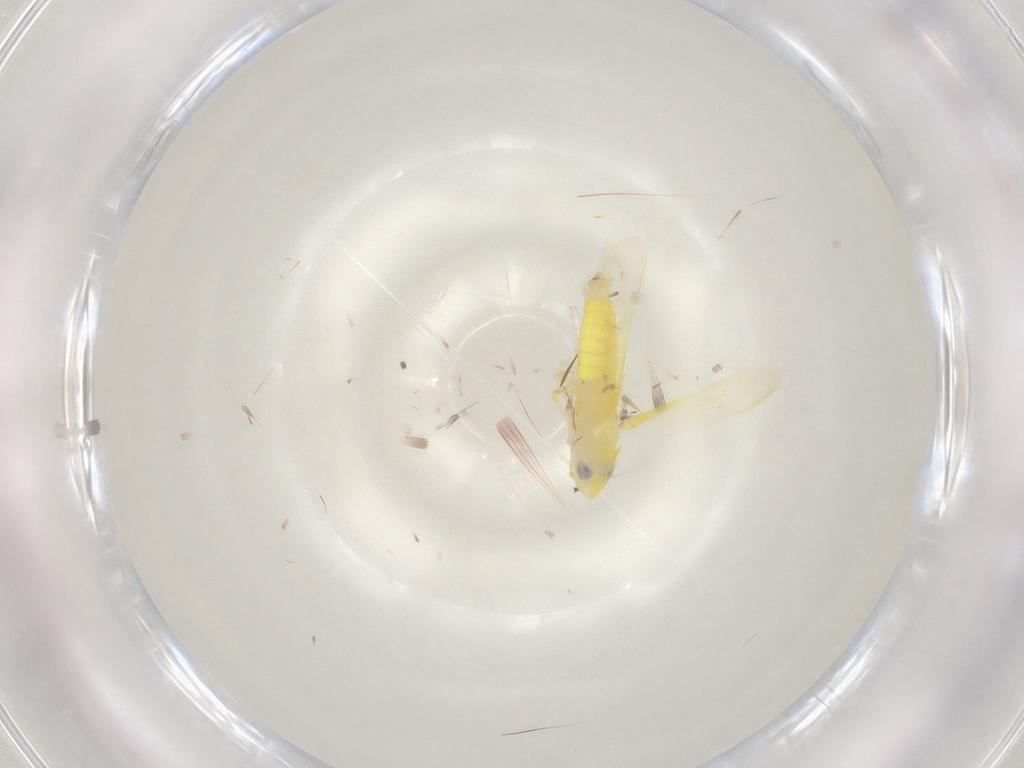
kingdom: Animalia
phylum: Arthropoda
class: Insecta
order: Hemiptera
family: Cicadellidae
